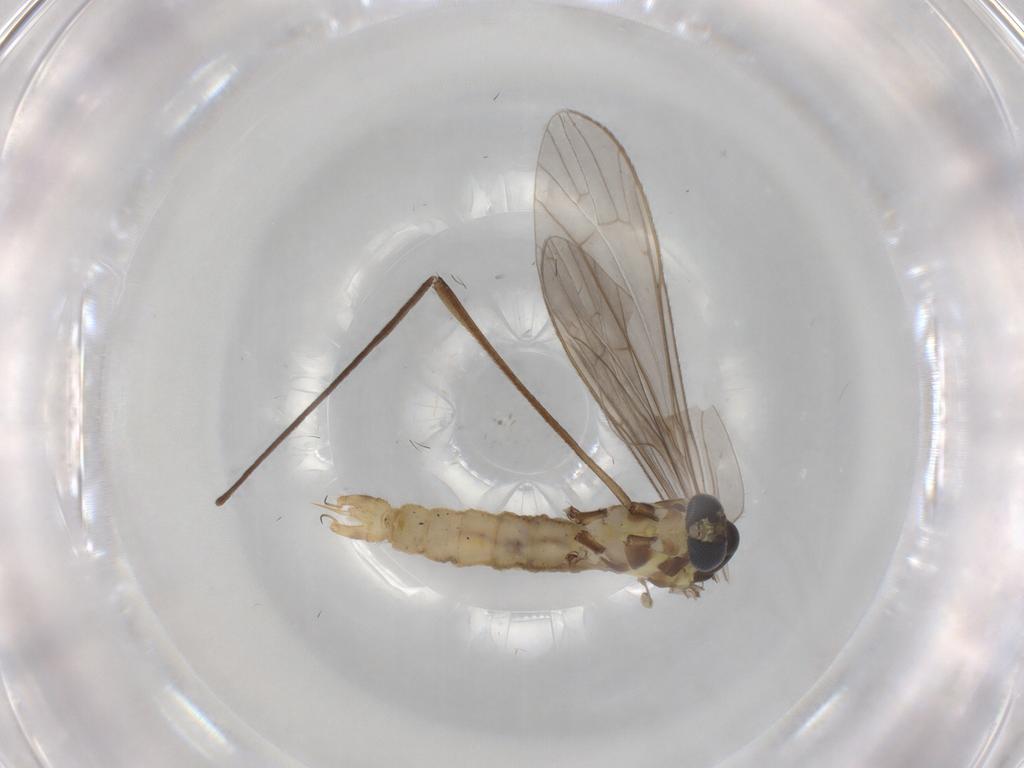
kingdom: Animalia
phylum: Arthropoda
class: Insecta
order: Diptera
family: Limoniidae
